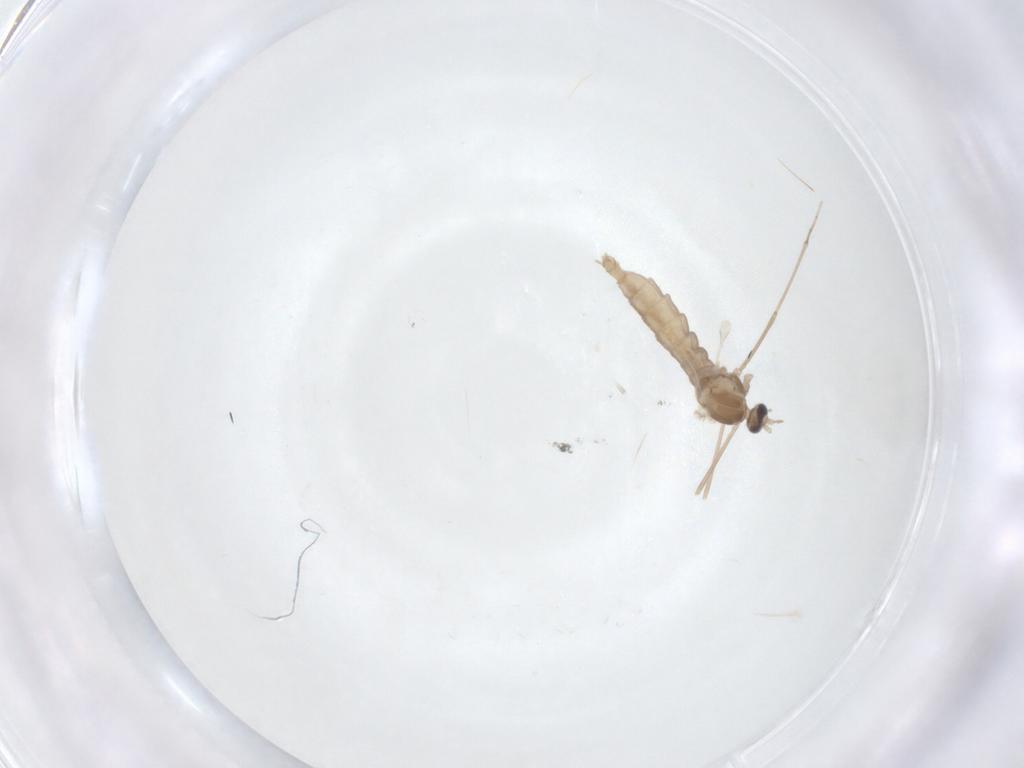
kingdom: Animalia
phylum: Arthropoda
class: Insecta
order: Diptera
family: Cecidomyiidae
